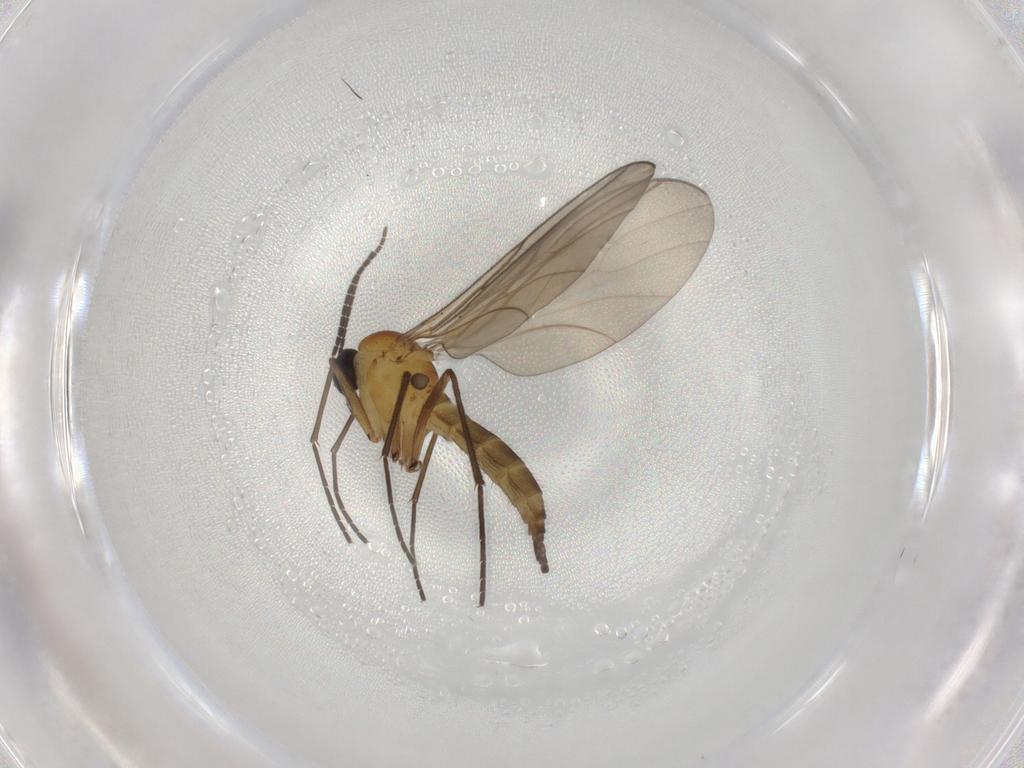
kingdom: Animalia
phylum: Arthropoda
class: Insecta
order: Diptera
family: Sciaridae
